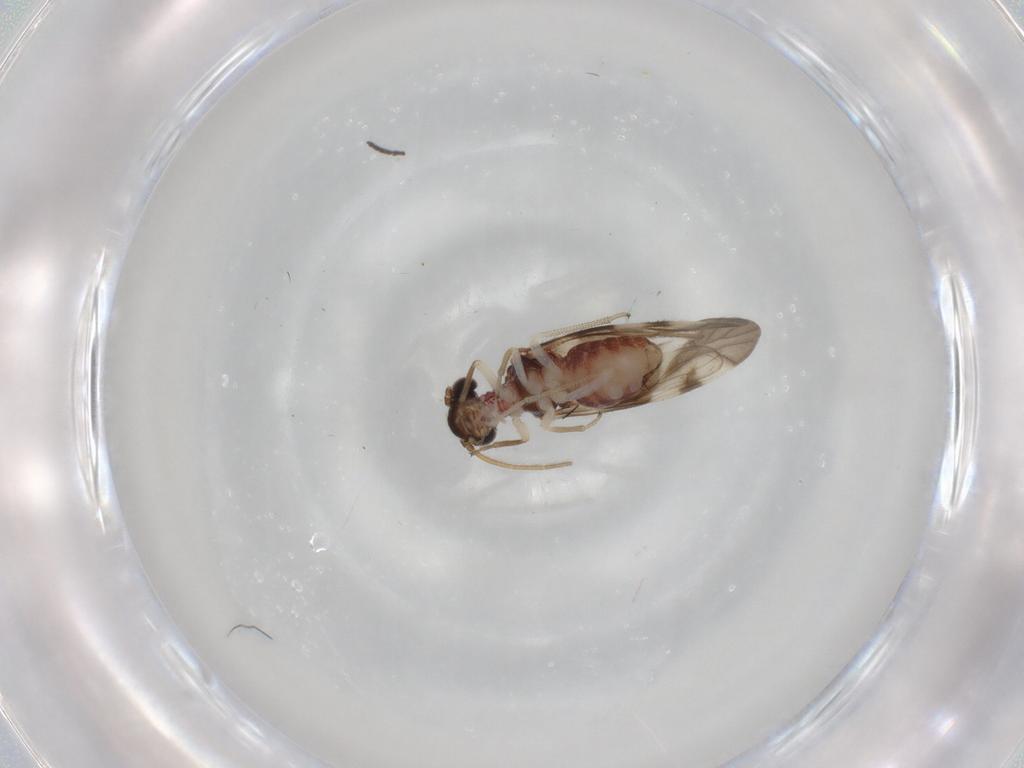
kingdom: Animalia
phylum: Arthropoda
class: Insecta
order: Psocodea
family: Archipsocidae
